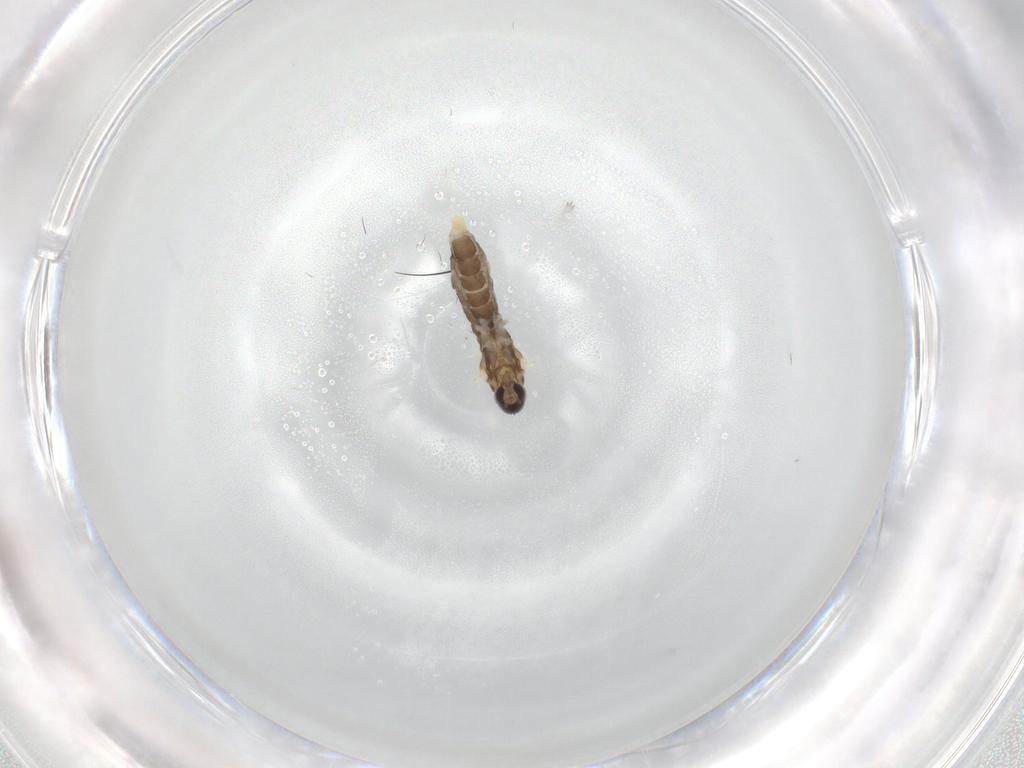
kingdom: Animalia
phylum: Arthropoda
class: Insecta
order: Diptera
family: Cecidomyiidae
